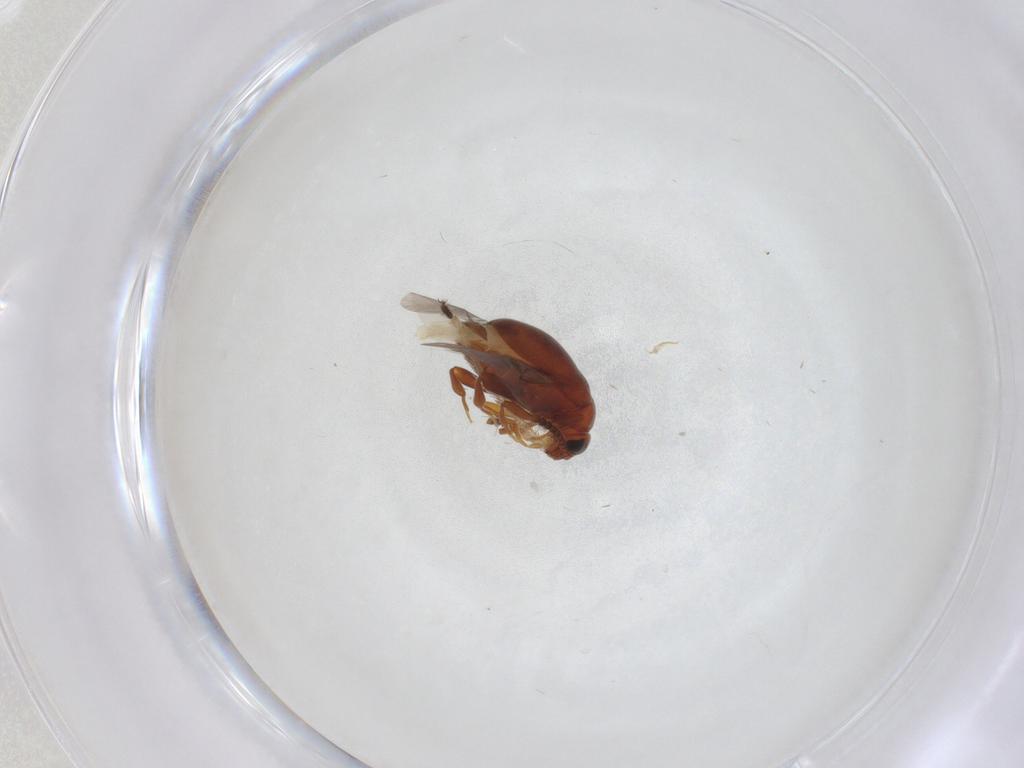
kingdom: Animalia
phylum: Arthropoda
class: Insecta
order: Coleoptera
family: Aderidae
